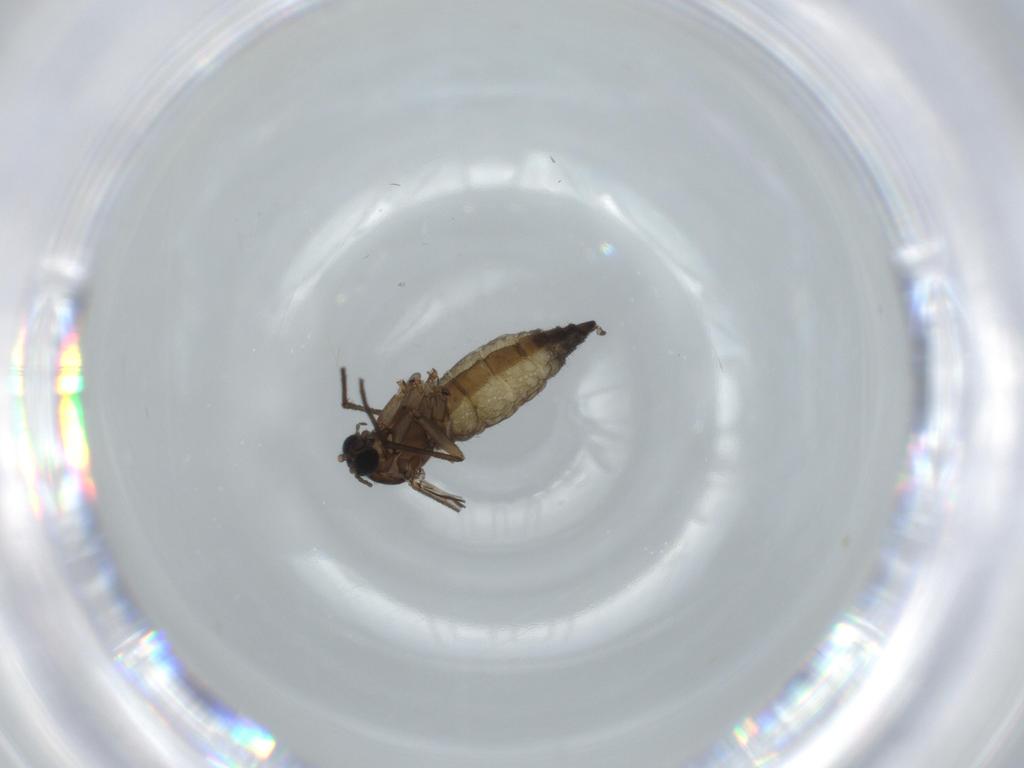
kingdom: Animalia
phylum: Arthropoda
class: Insecta
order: Diptera
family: Sciaridae
